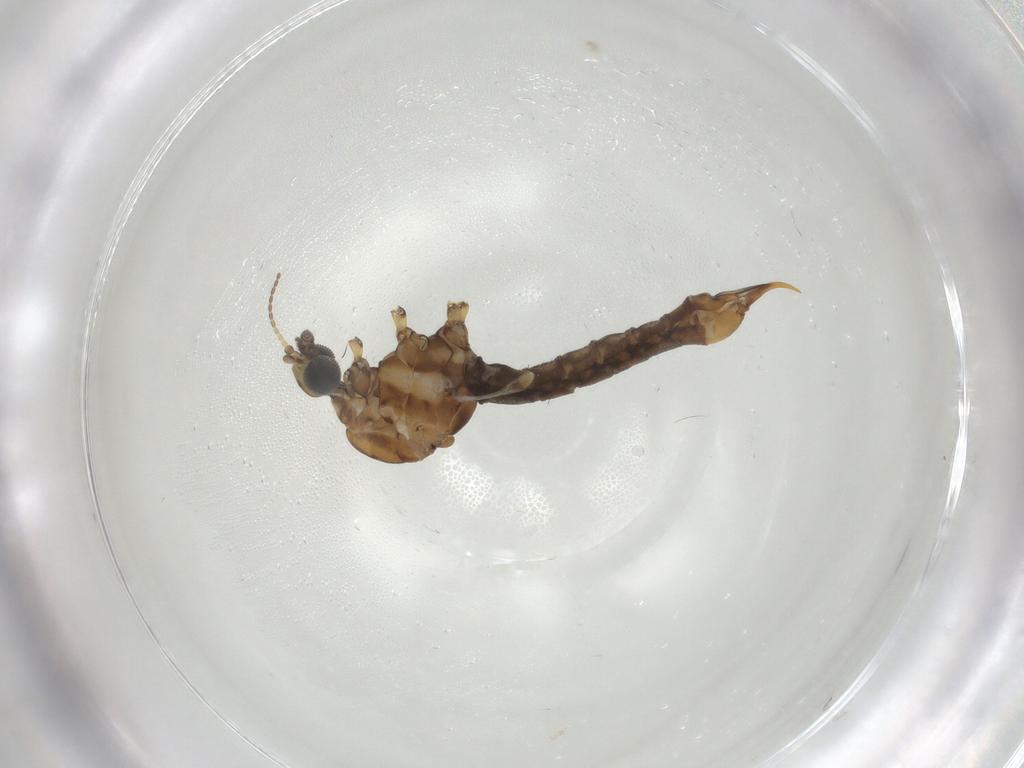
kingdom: Animalia
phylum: Arthropoda
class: Insecta
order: Diptera
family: Limoniidae
